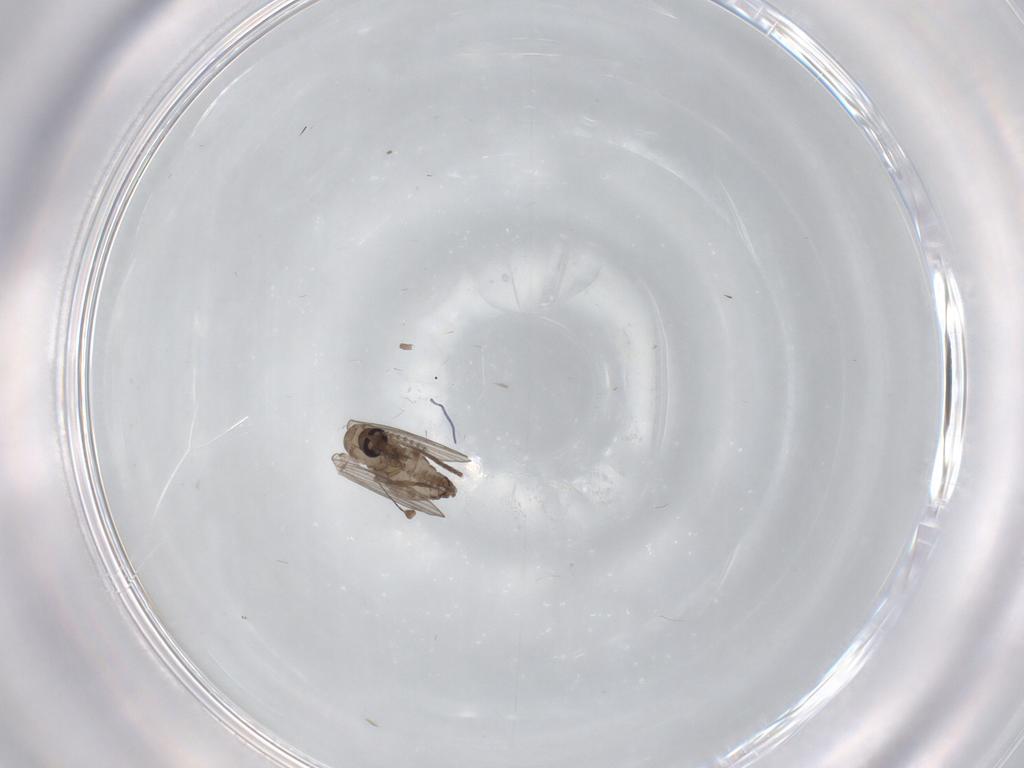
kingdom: Animalia
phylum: Arthropoda
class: Insecta
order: Diptera
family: Psychodidae
